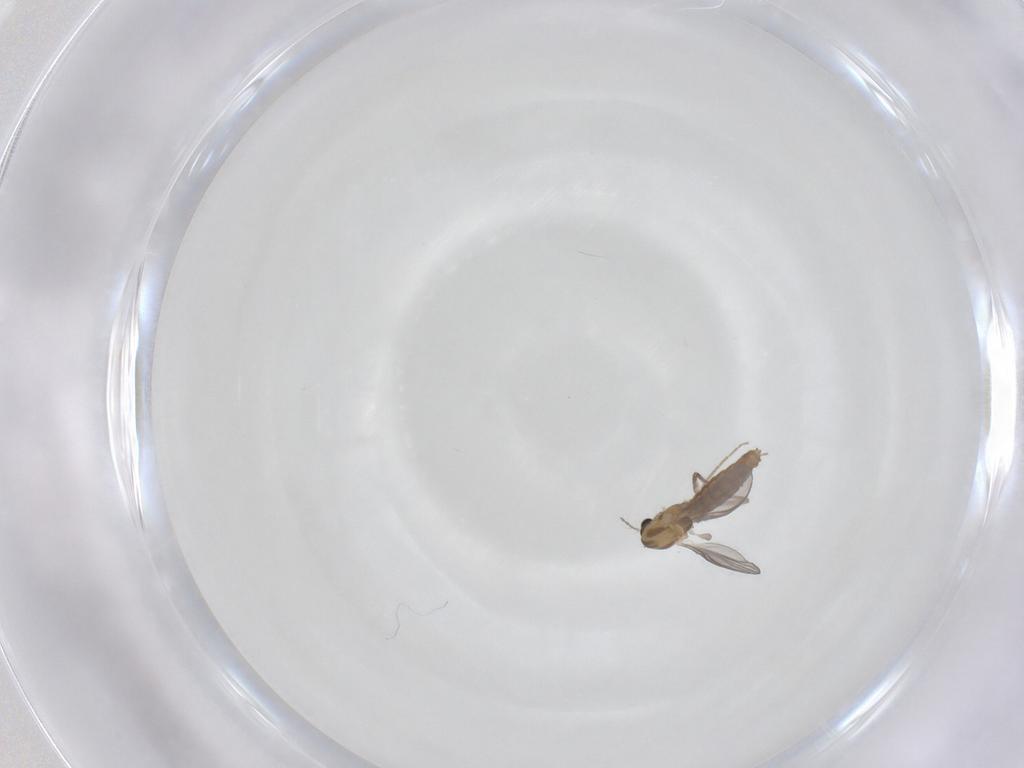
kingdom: Animalia
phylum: Arthropoda
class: Insecta
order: Diptera
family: Chironomidae
